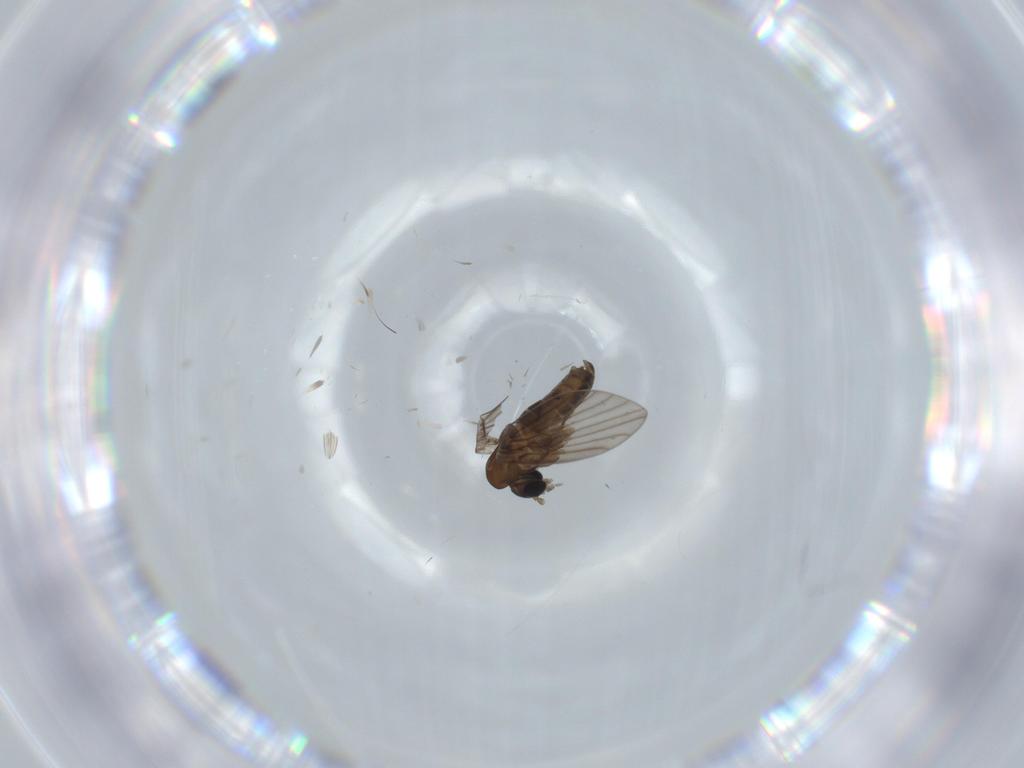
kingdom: Animalia
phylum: Arthropoda
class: Insecta
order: Diptera
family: Psychodidae
